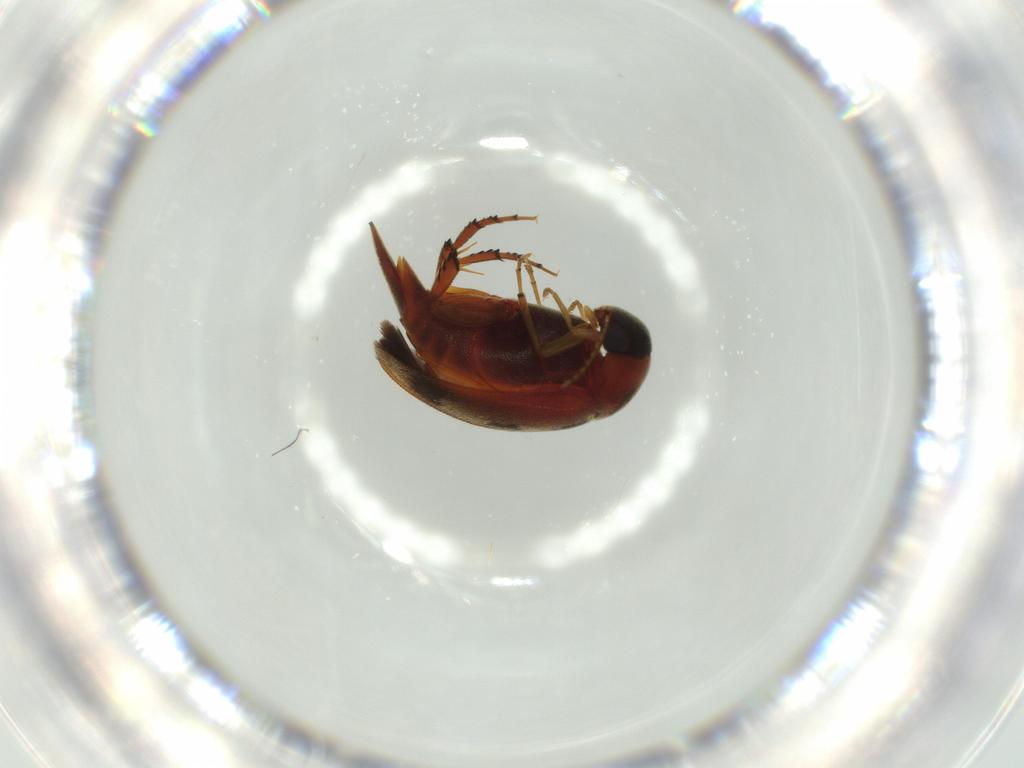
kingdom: Animalia
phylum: Arthropoda
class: Insecta
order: Coleoptera
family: Mordellidae
